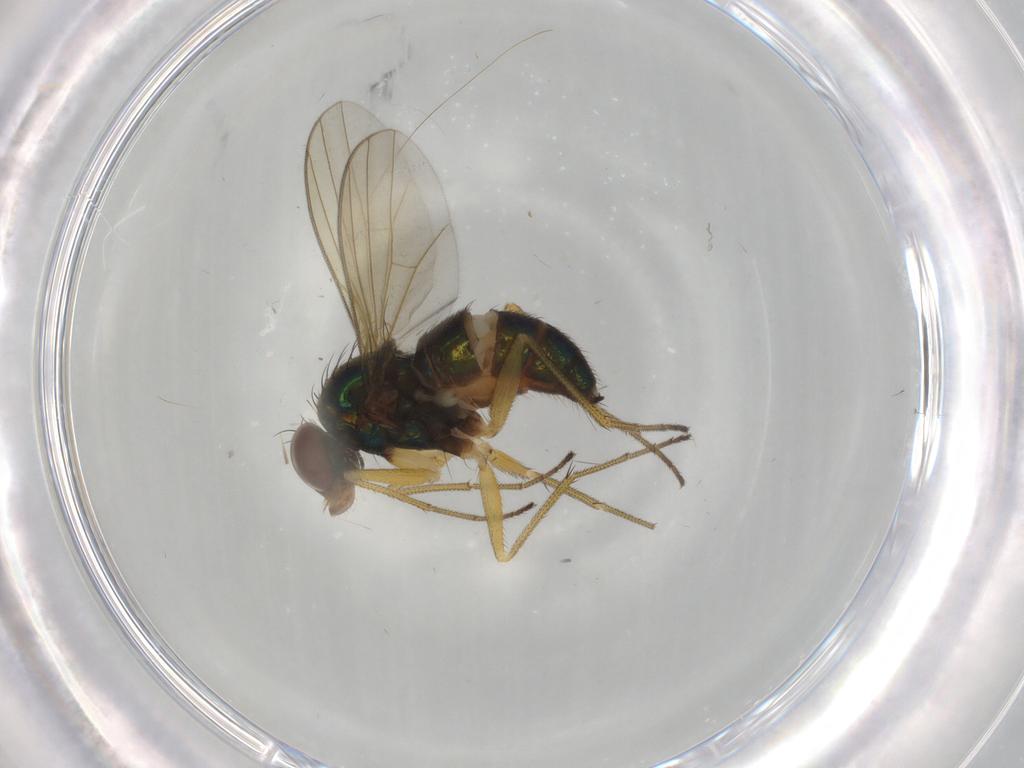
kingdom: Animalia
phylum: Arthropoda
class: Insecta
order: Diptera
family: Dolichopodidae
